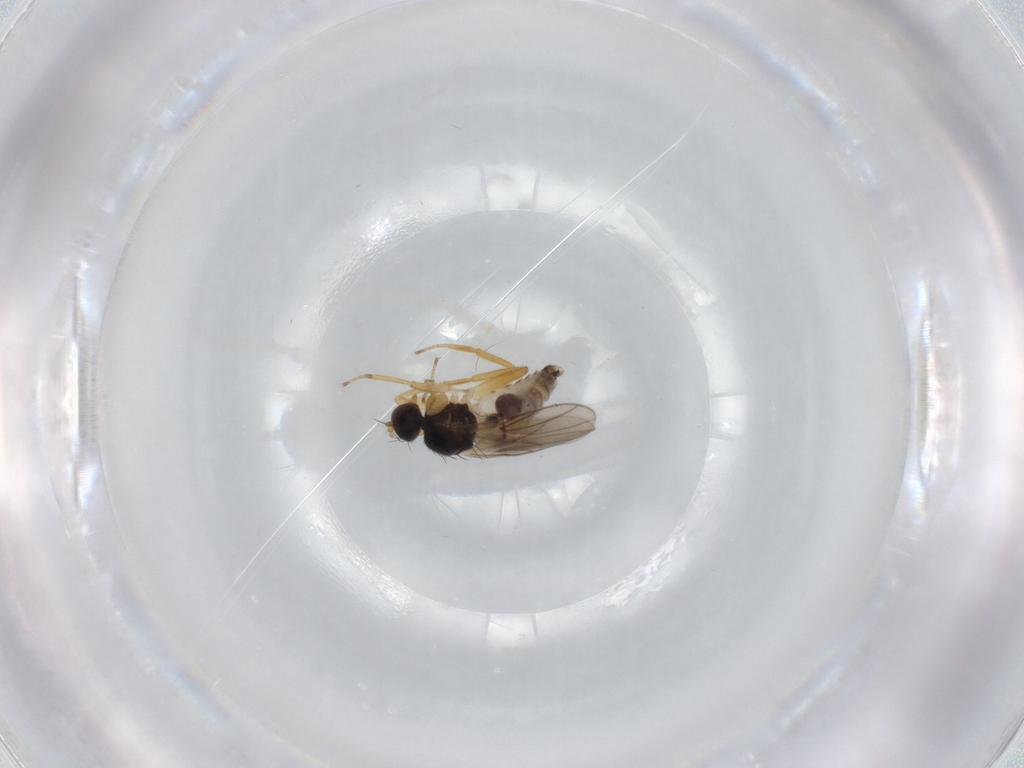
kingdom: Animalia
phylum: Arthropoda
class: Insecta
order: Diptera
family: Hybotidae
